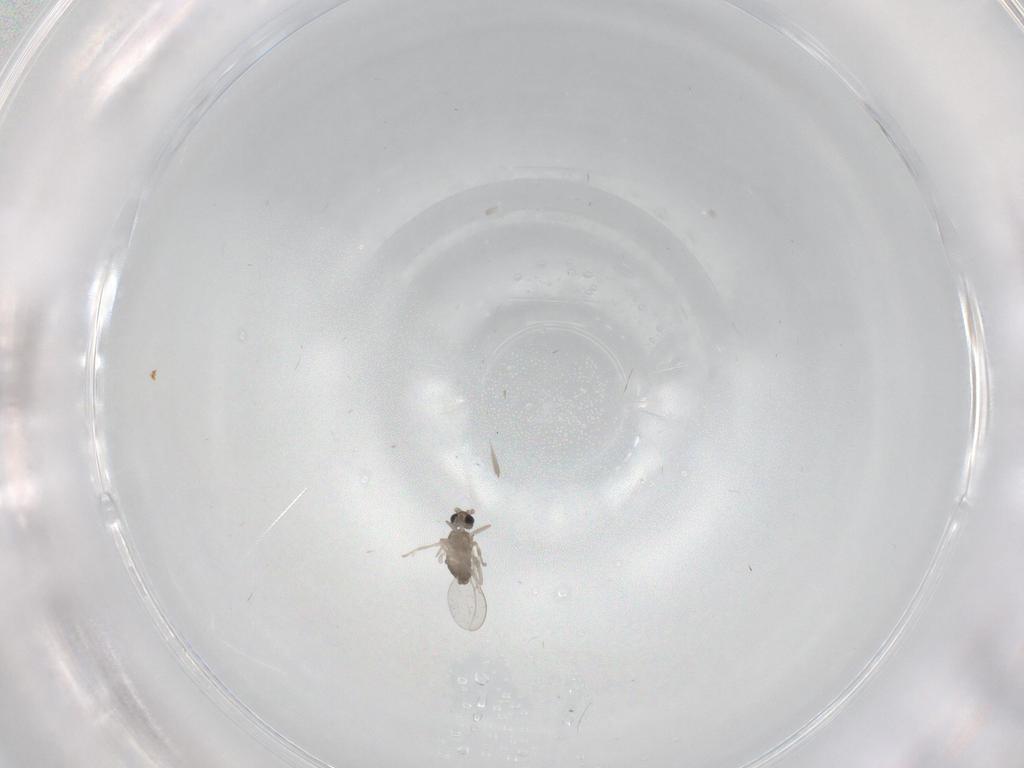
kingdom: Animalia
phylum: Arthropoda
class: Insecta
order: Diptera
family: Cecidomyiidae
